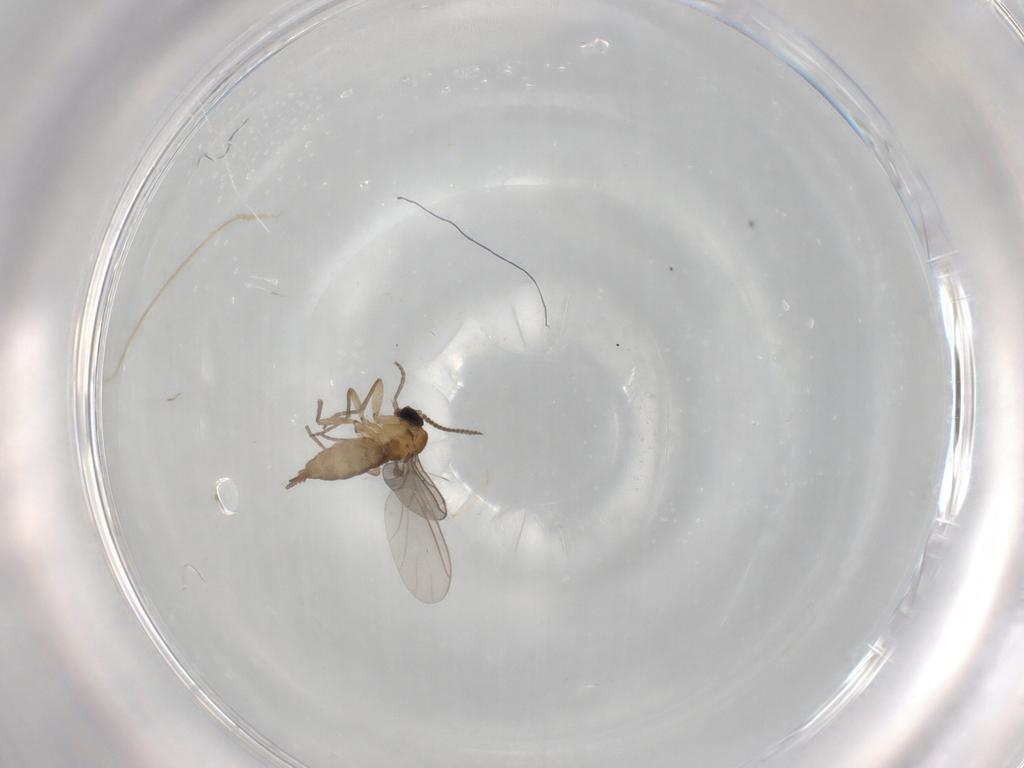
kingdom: Animalia
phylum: Arthropoda
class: Insecta
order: Diptera
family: Sciaridae
